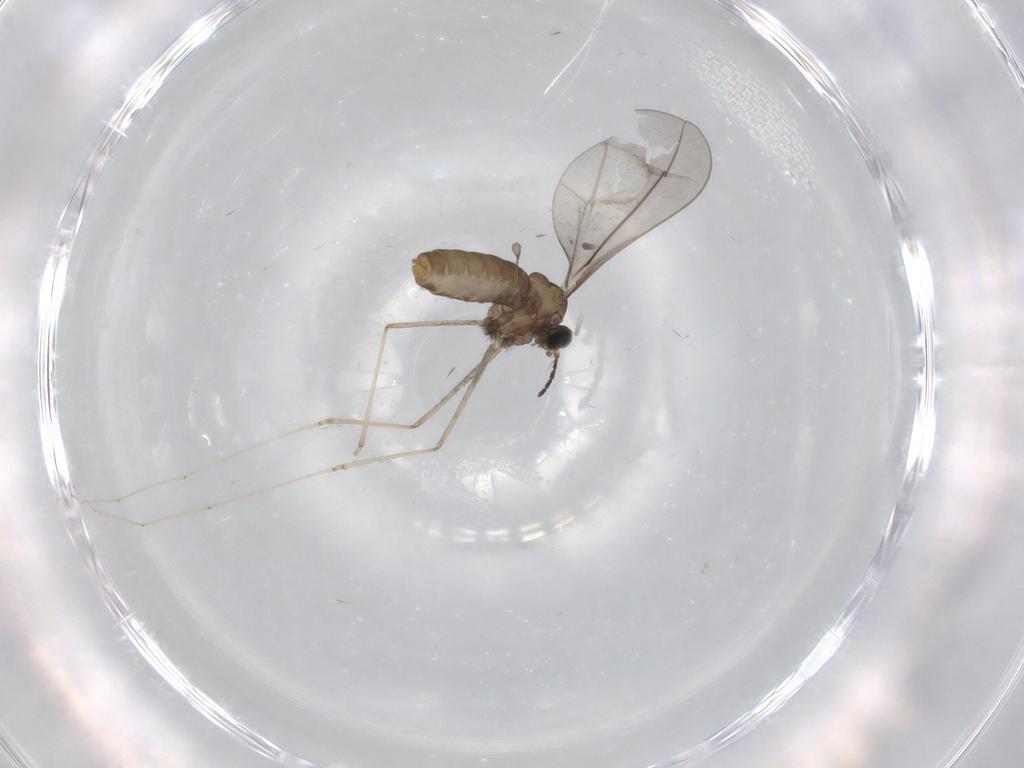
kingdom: Animalia
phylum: Arthropoda
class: Insecta
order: Diptera
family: Cecidomyiidae
